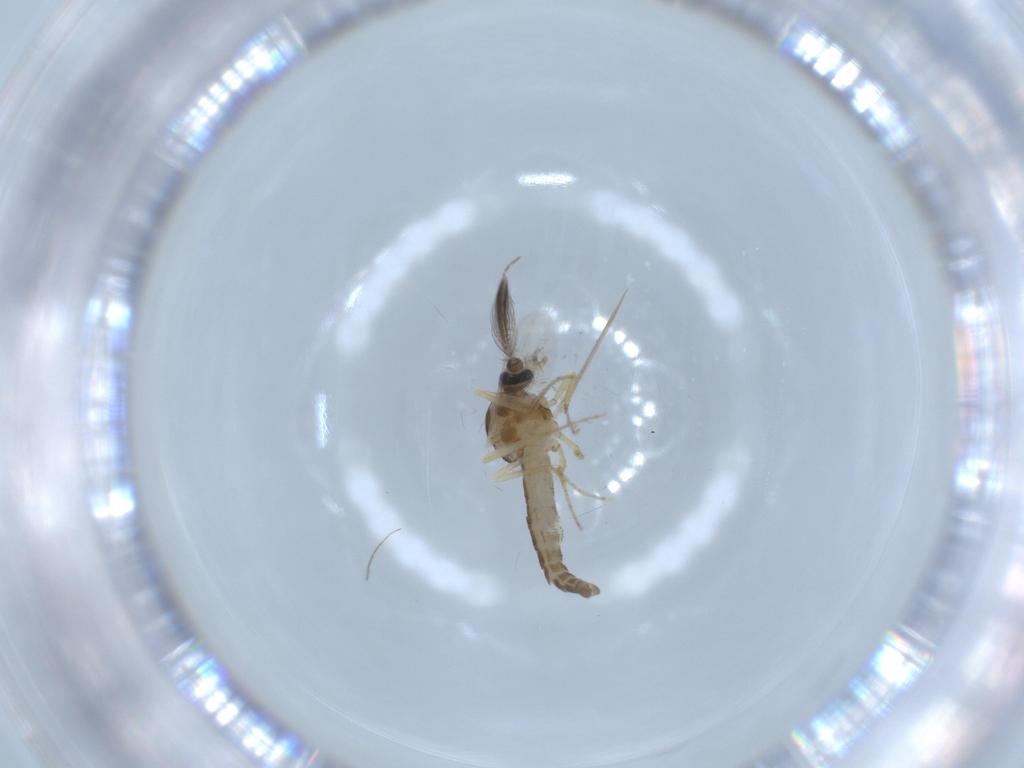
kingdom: Animalia
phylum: Arthropoda
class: Insecta
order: Diptera
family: Ceratopogonidae
